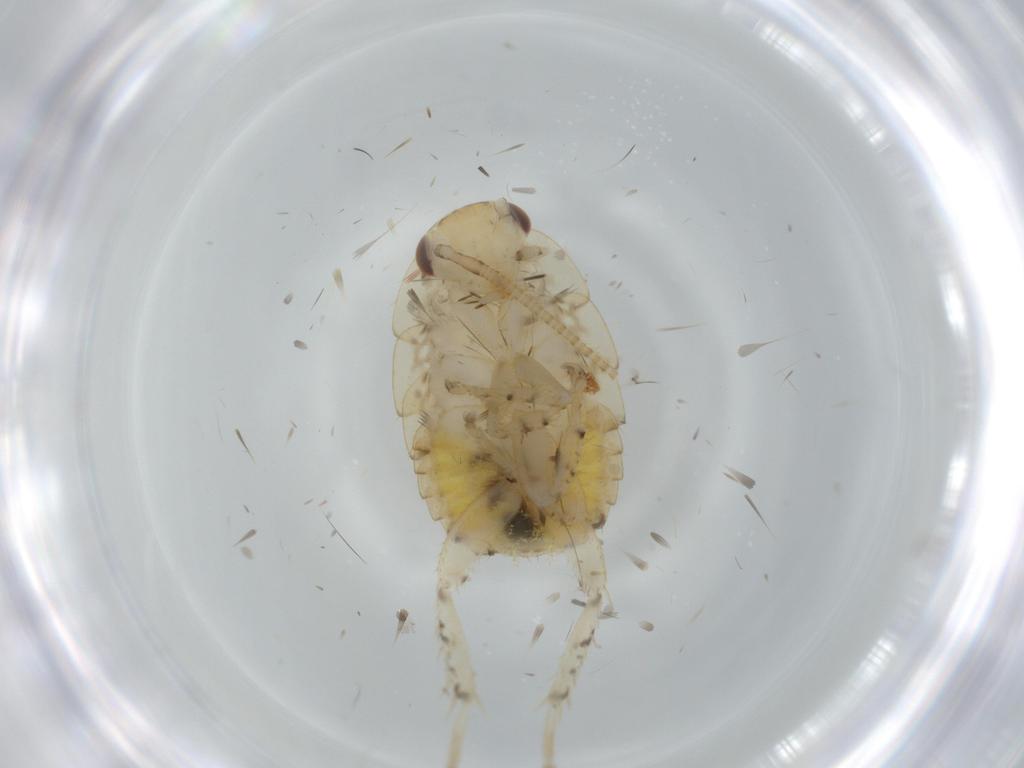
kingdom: Animalia
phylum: Arthropoda
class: Insecta
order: Blattodea
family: Ectobiidae
